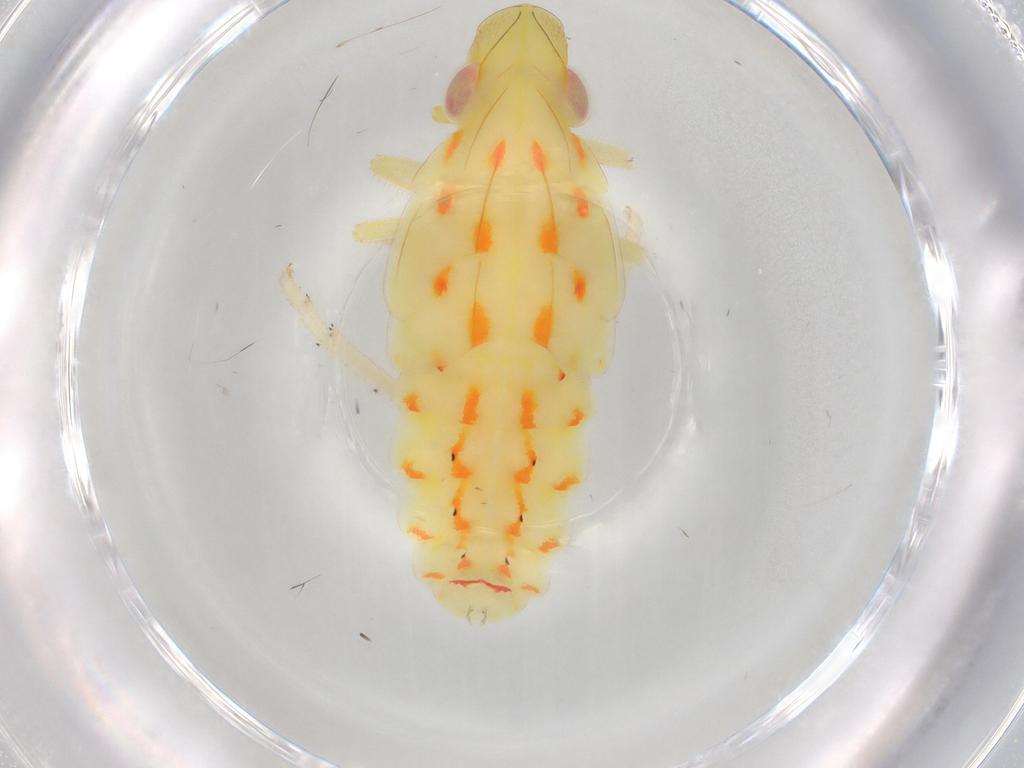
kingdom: Animalia
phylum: Arthropoda
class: Insecta
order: Hemiptera
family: Tropiduchidae
